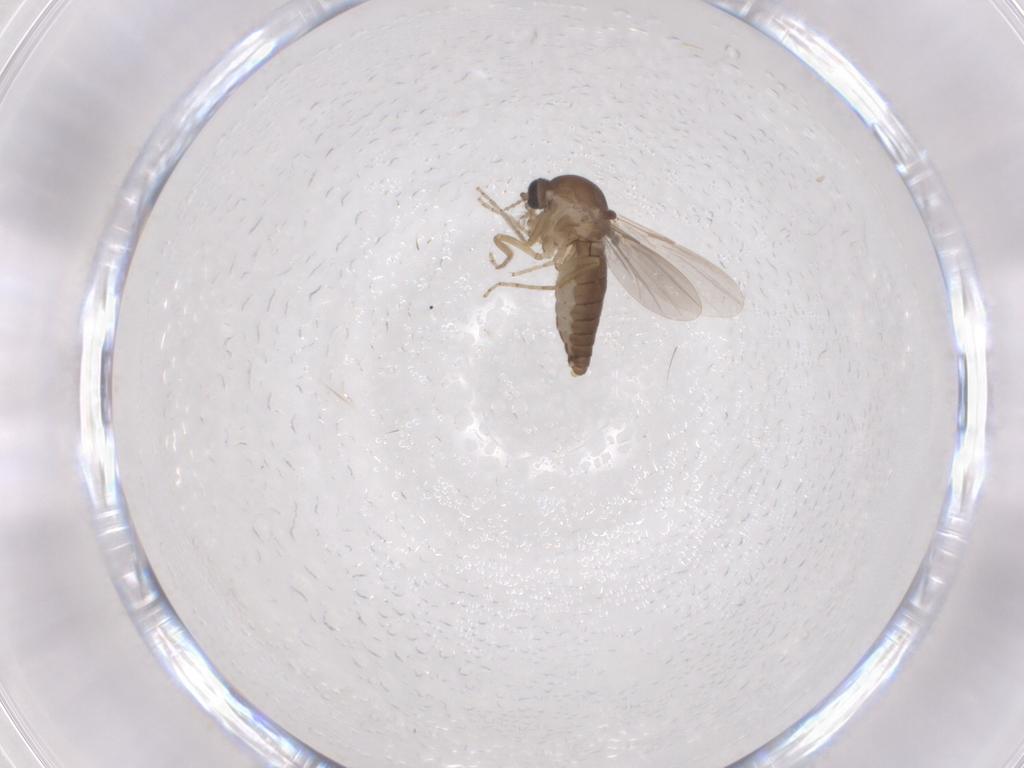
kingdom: Animalia
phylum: Arthropoda
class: Insecta
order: Diptera
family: Ceratopogonidae
